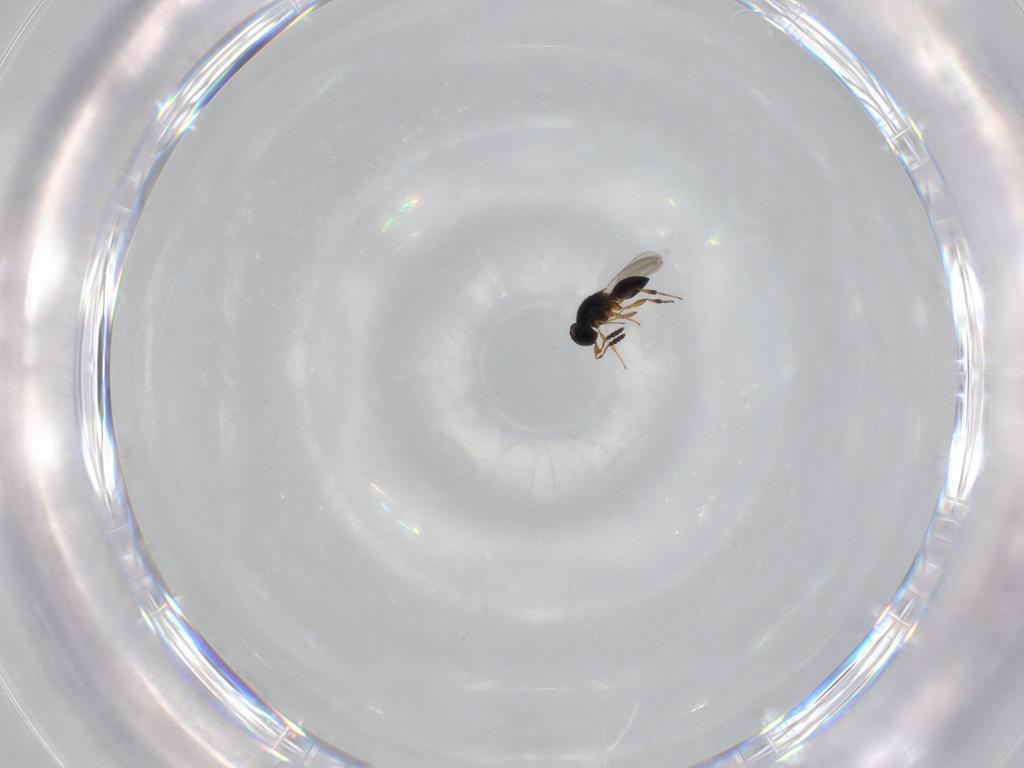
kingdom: Animalia
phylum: Arthropoda
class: Insecta
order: Hymenoptera
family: Platygastridae
